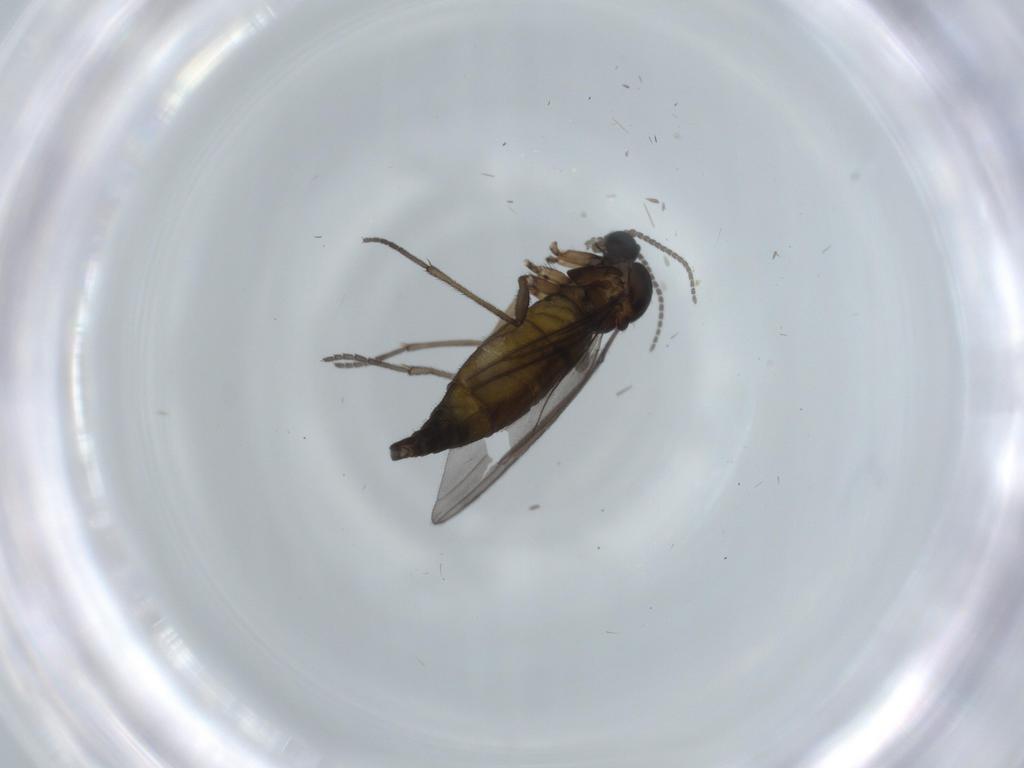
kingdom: Animalia
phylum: Arthropoda
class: Insecta
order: Diptera
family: Sciaridae
